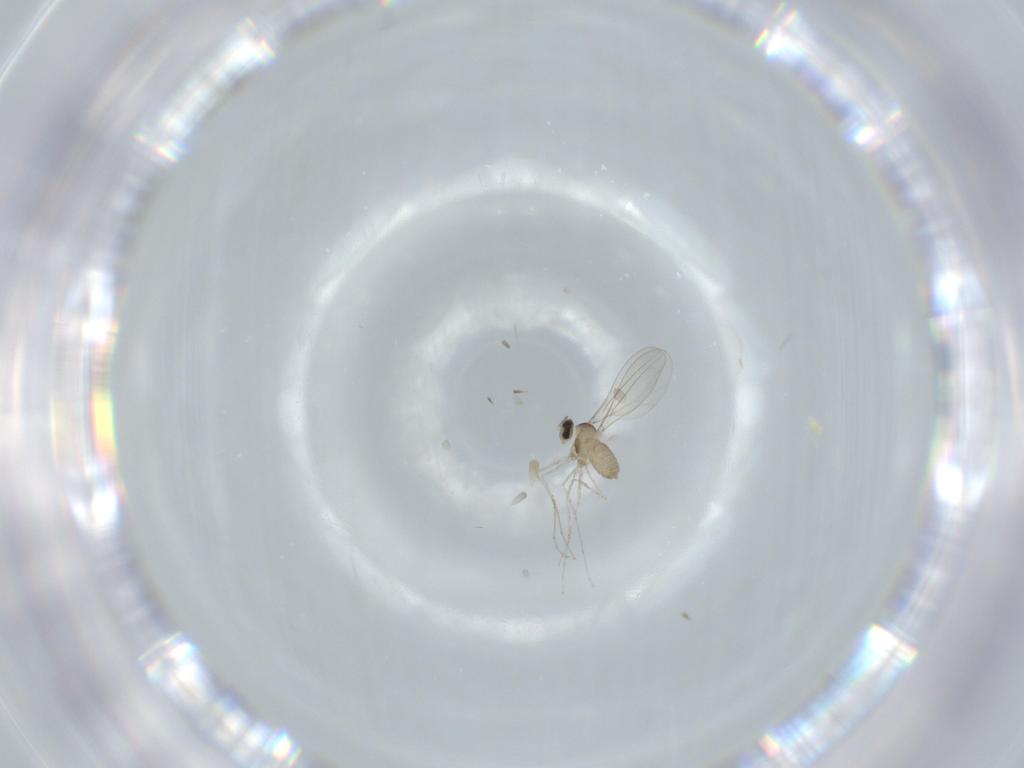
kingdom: Animalia
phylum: Arthropoda
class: Insecta
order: Diptera
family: Cecidomyiidae
